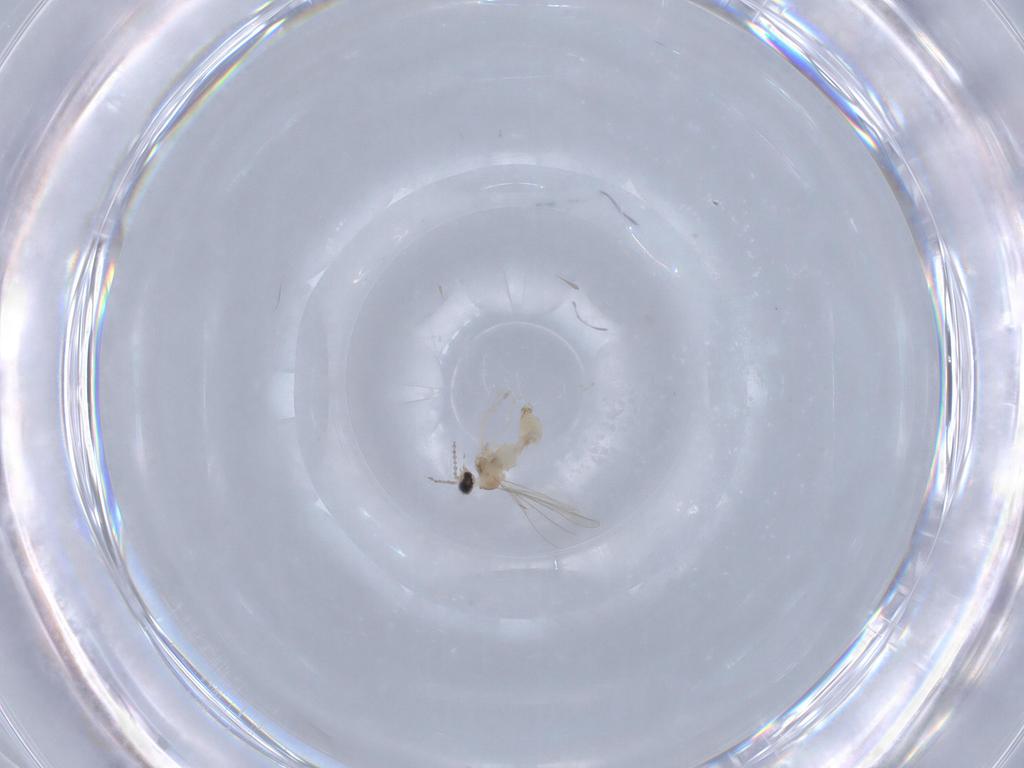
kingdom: Animalia
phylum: Arthropoda
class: Insecta
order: Diptera
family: Cecidomyiidae
